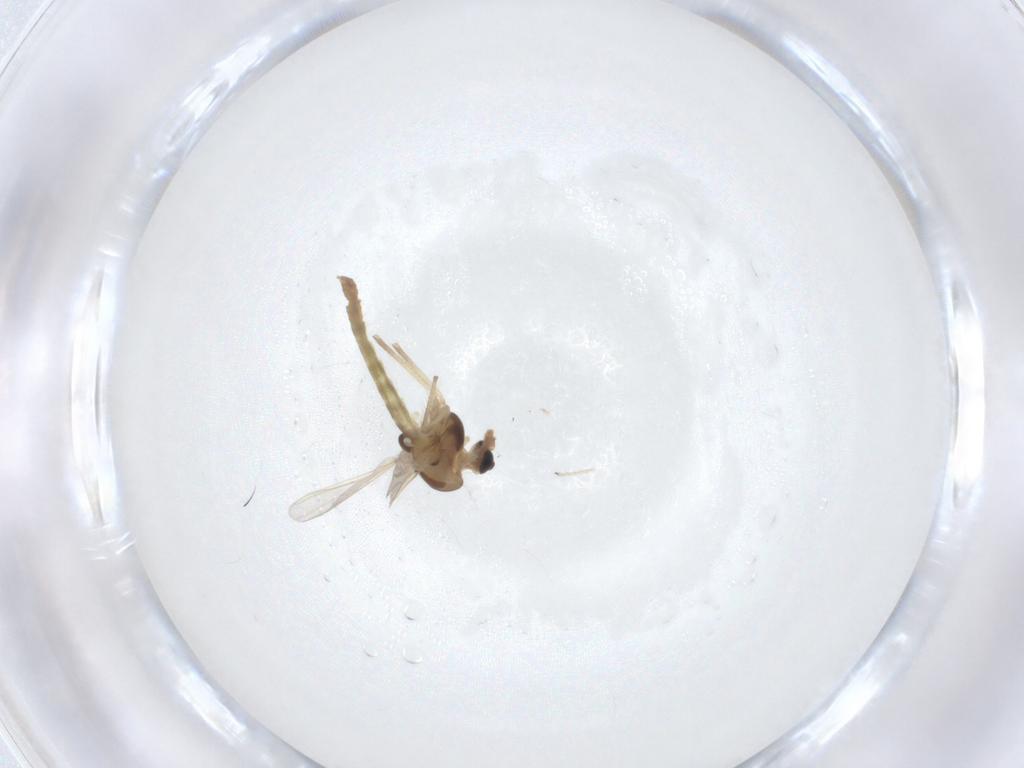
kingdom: Animalia
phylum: Arthropoda
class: Insecta
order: Diptera
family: Chironomidae
